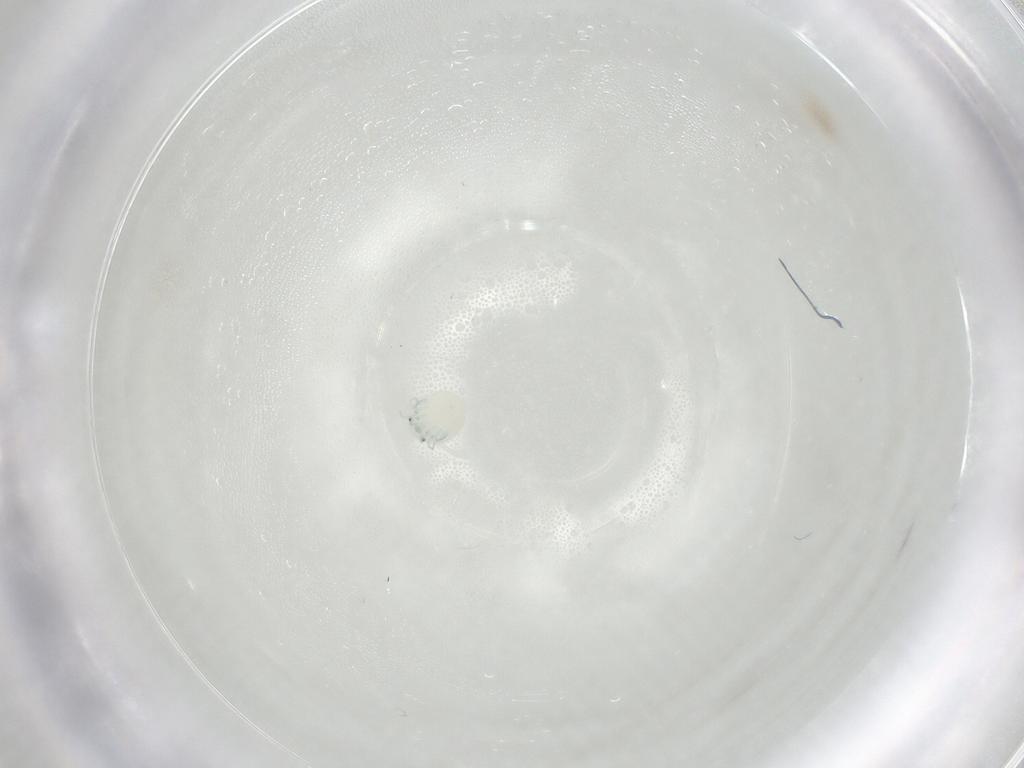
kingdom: Animalia
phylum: Arthropoda
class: Arachnida
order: Trombidiformes
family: Arrenuridae
